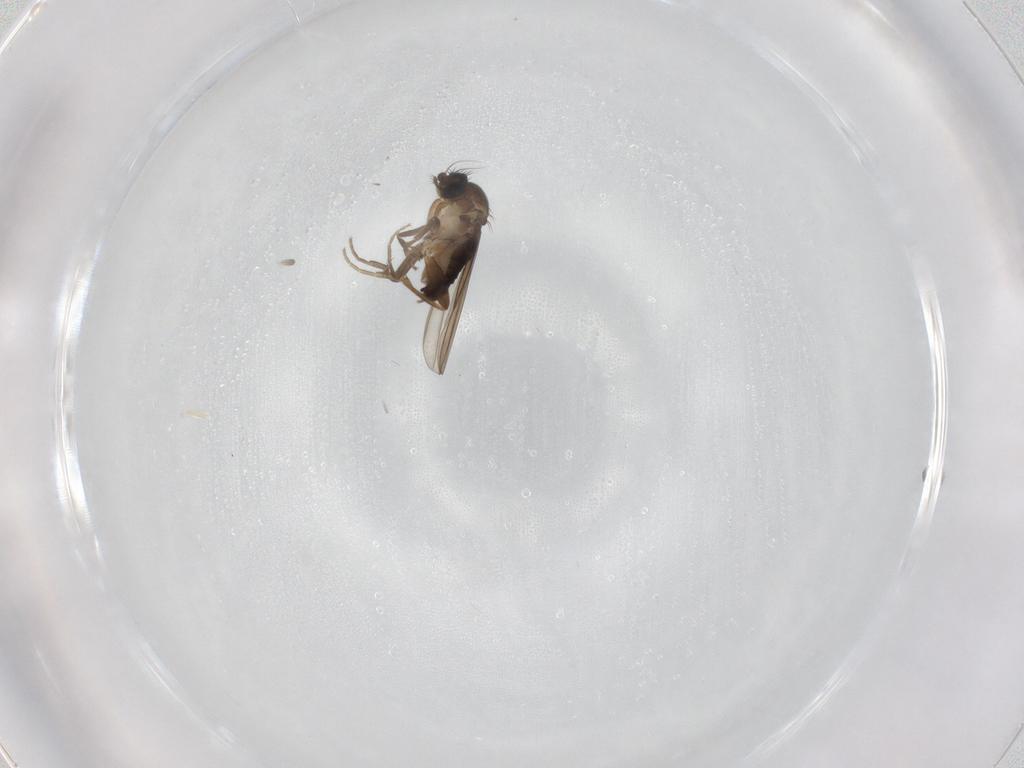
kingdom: Animalia
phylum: Arthropoda
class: Insecta
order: Diptera
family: Phoridae
